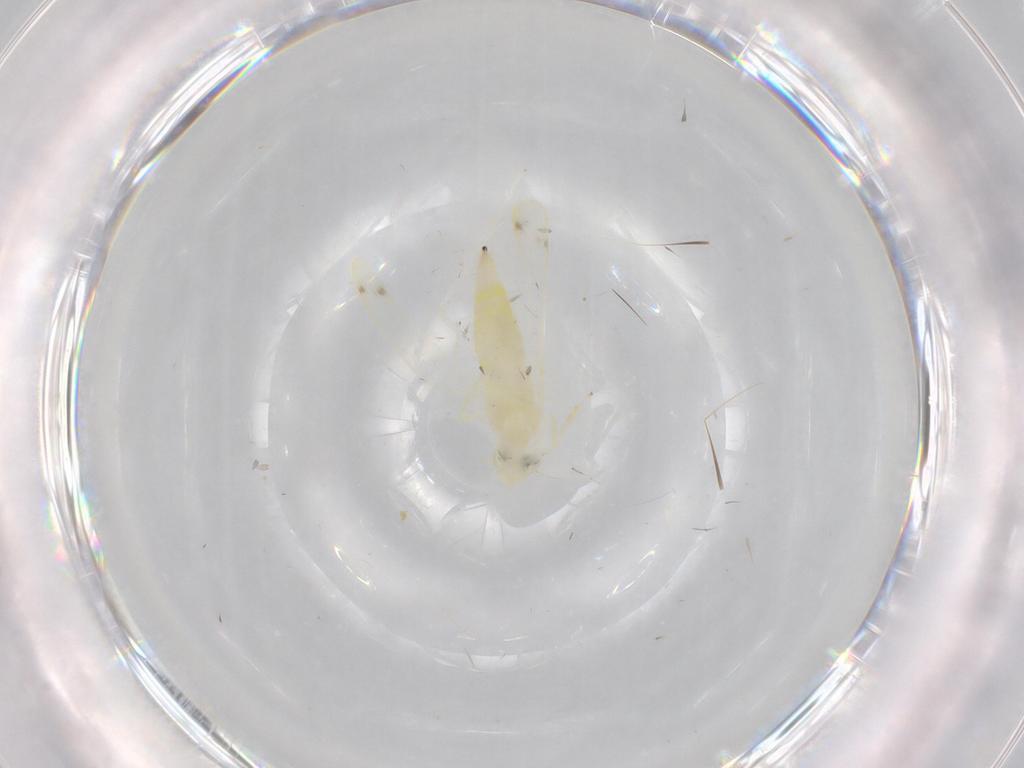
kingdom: Animalia
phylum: Arthropoda
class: Insecta
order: Hemiptera
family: Cicadellidae
